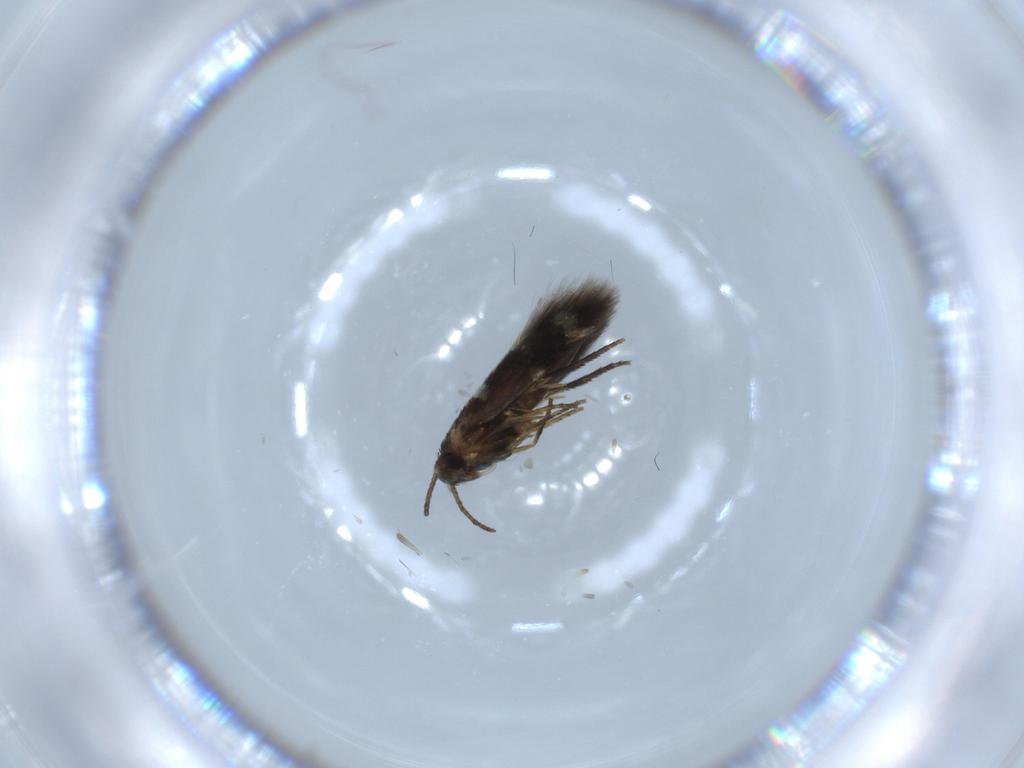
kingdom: Animalia
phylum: Arthropoda
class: Insecta
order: Lepidoptera
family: Heliozelidae
